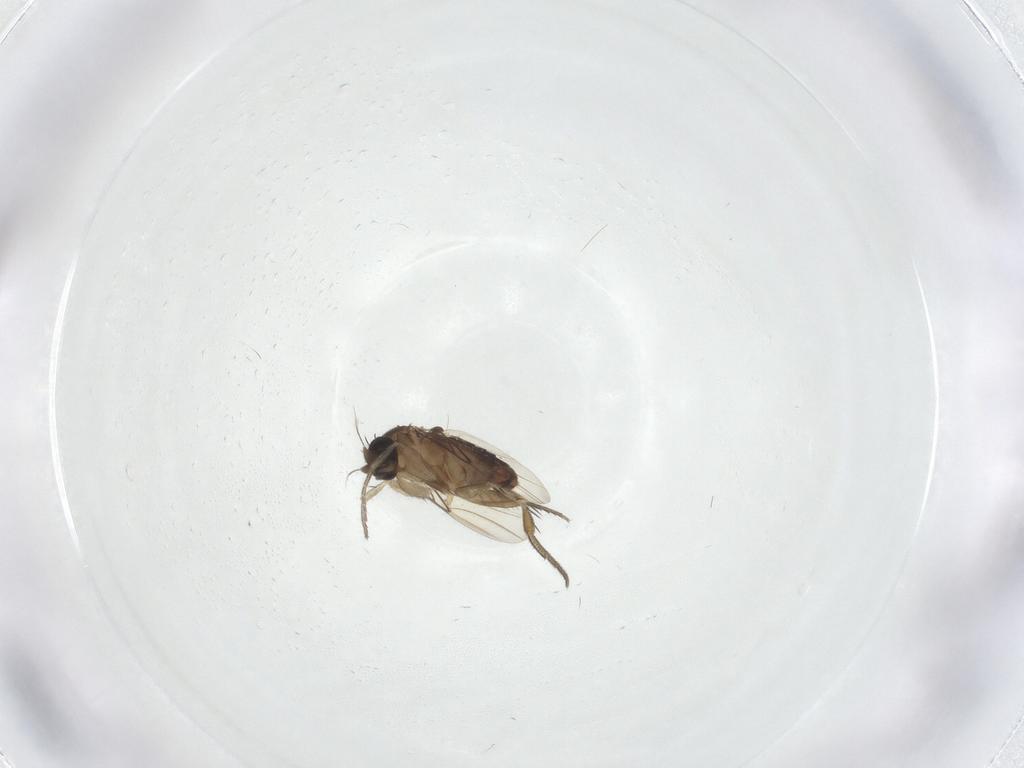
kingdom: Animalia
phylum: Arthropoda
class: Insecta
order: Diptera
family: Phoridae
